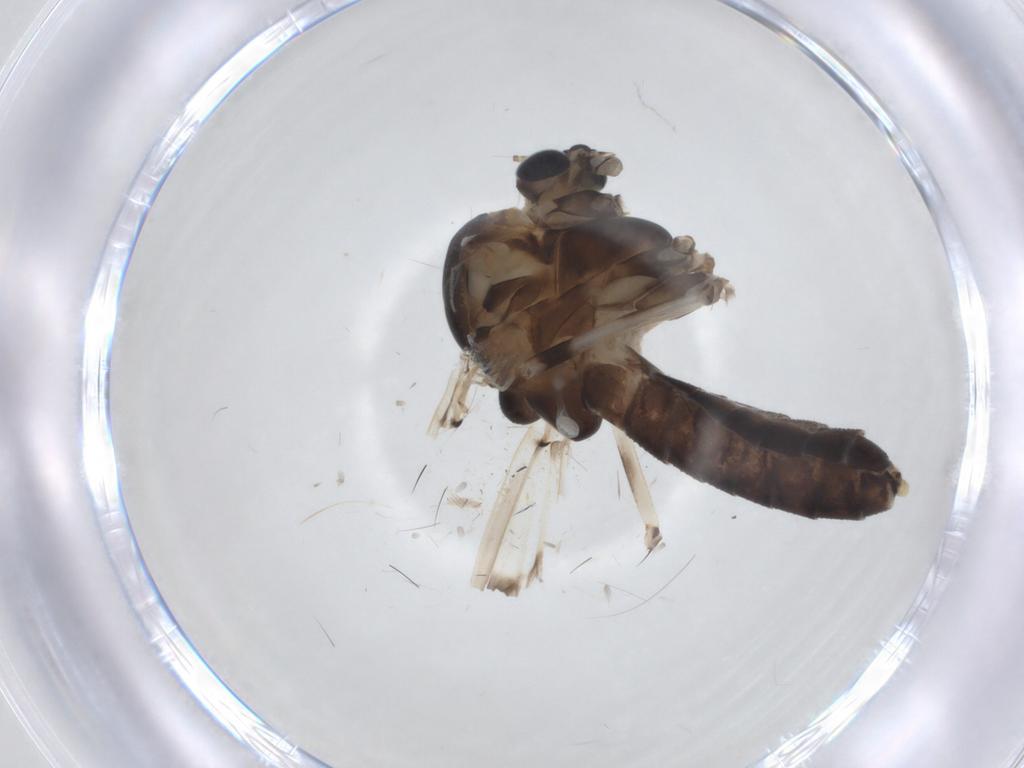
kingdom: Animalia
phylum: Arthropoda
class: Insecta
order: Diptera
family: Chironomidae
